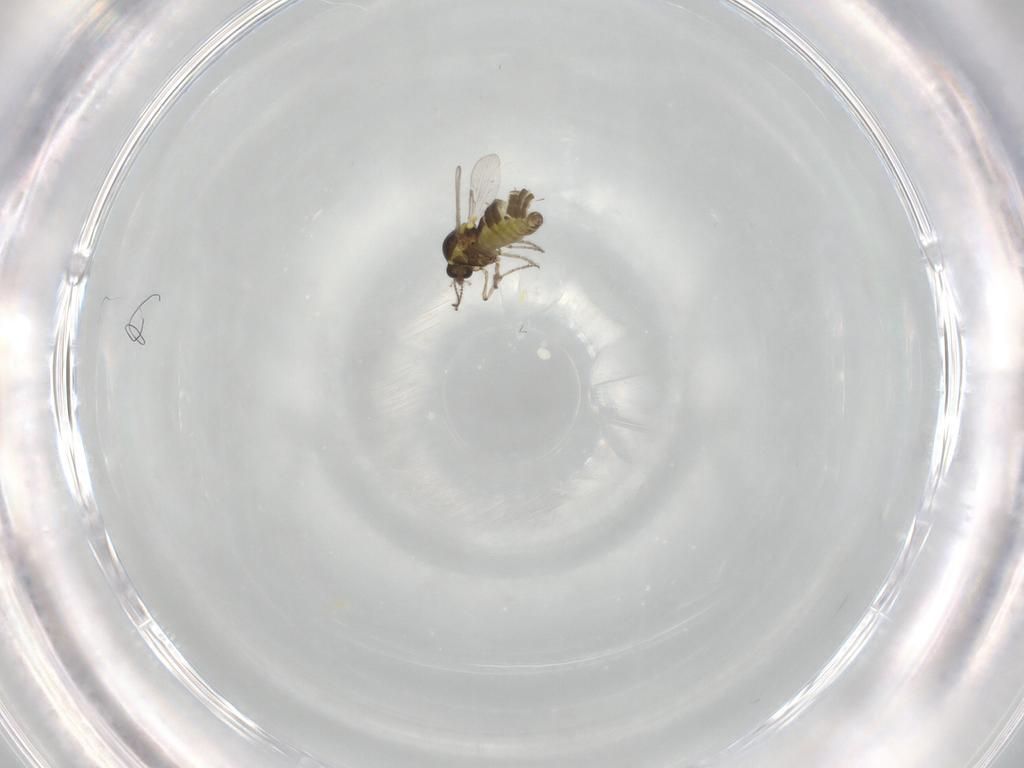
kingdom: Animalia
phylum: Arthropoda
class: Insecta
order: Diptera
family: Ceratopogonidae
